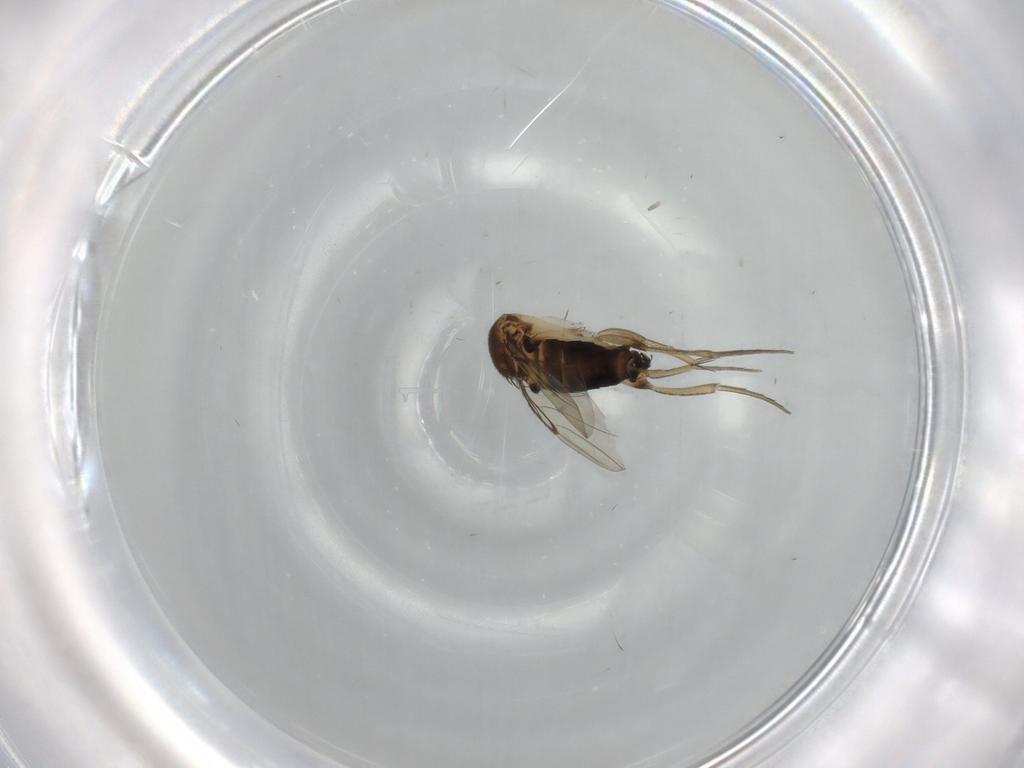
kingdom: Animalia
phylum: Arthropoda
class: Insecta
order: Diptera
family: Phoridae
